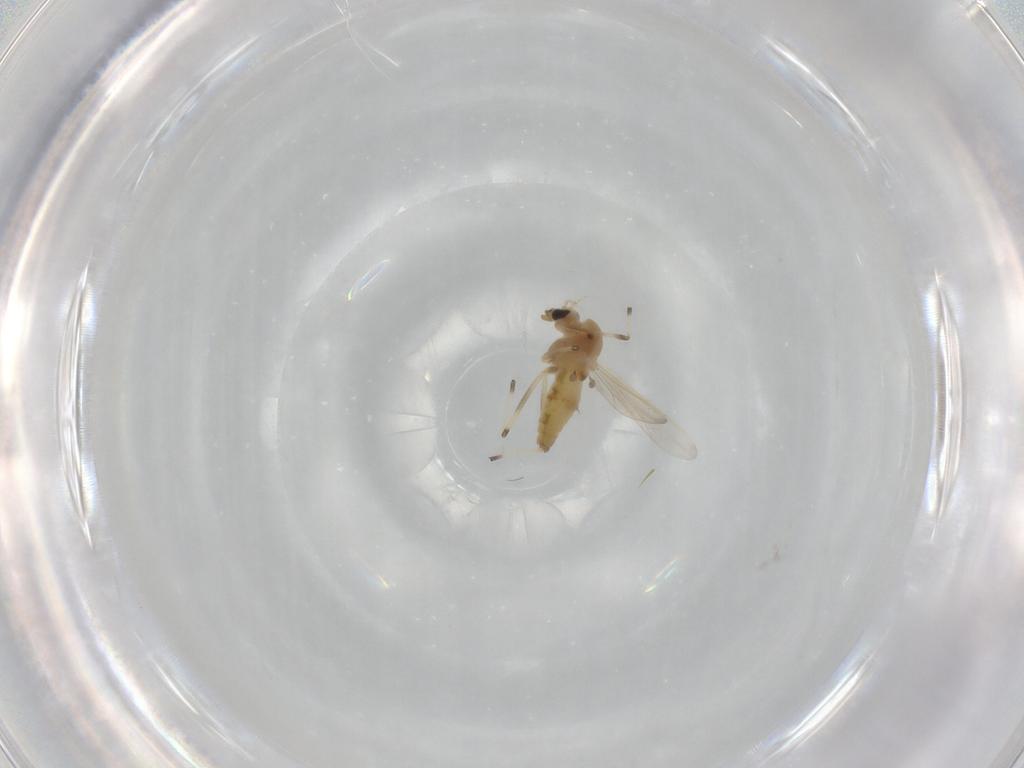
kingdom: Animalia
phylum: Arthropoda
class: Insecta
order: Diptera
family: Chironomidae
